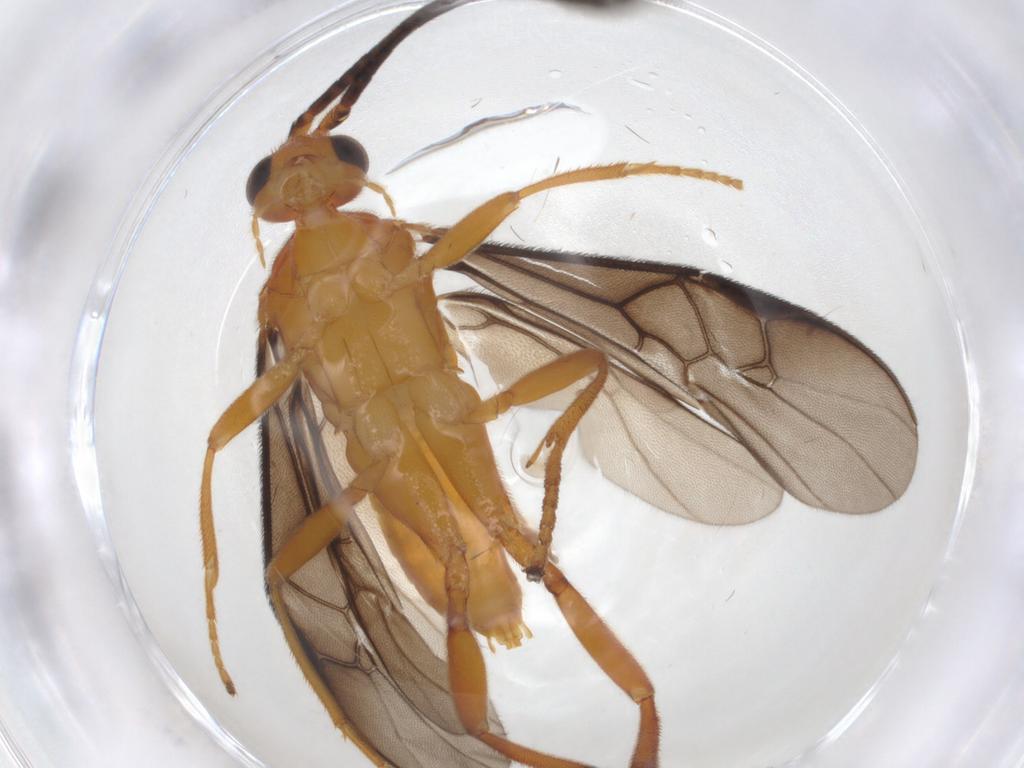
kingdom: Animalia
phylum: Arthropoda
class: Insecta
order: Hymenoptera
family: Braconidae
